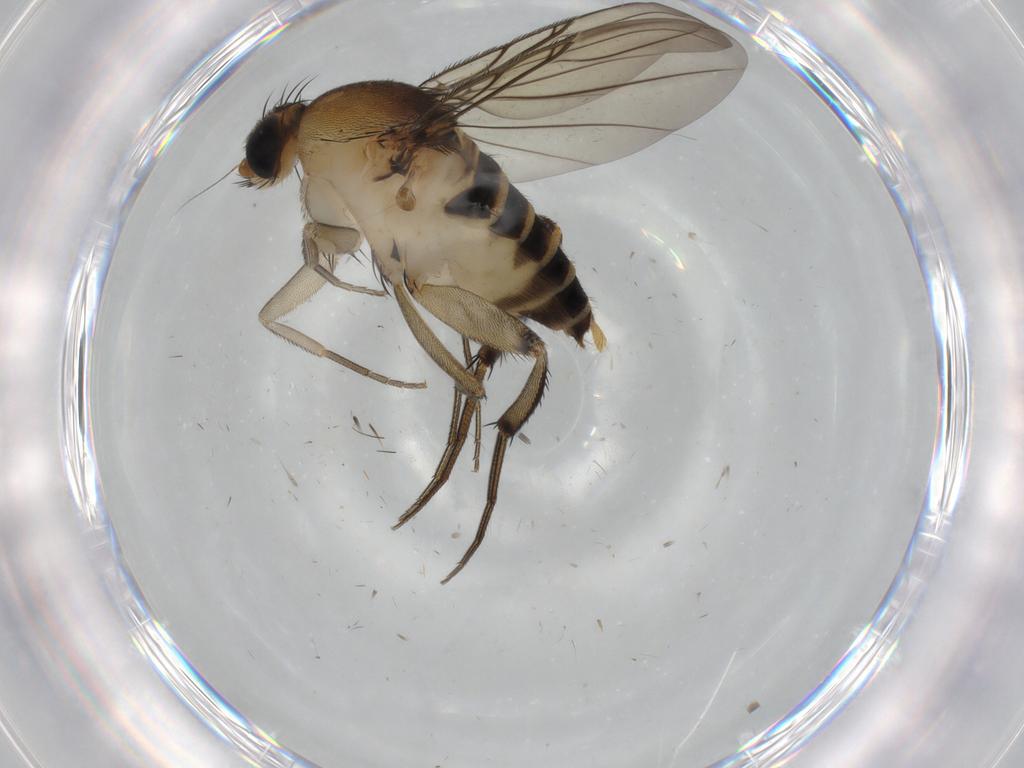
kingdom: Animalia
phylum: Arthropoda
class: Insecta
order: Diptera
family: Phoridae
